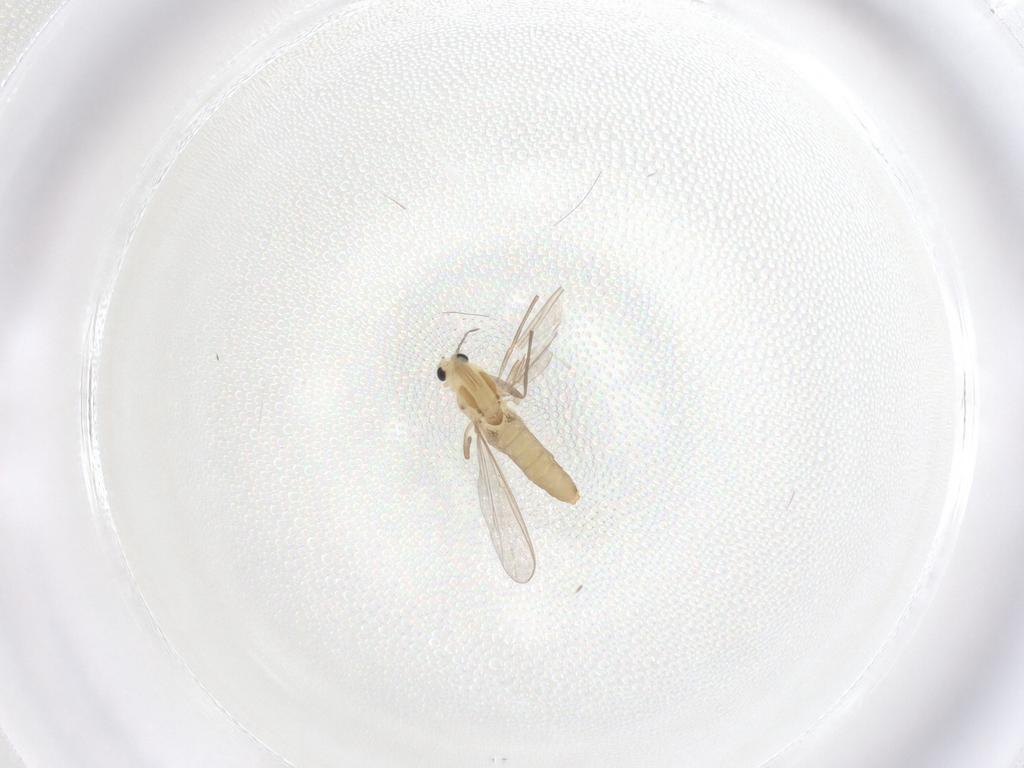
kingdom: Animalia
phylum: Arthropoda
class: Insecta
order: Diptera
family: Chironomidae
